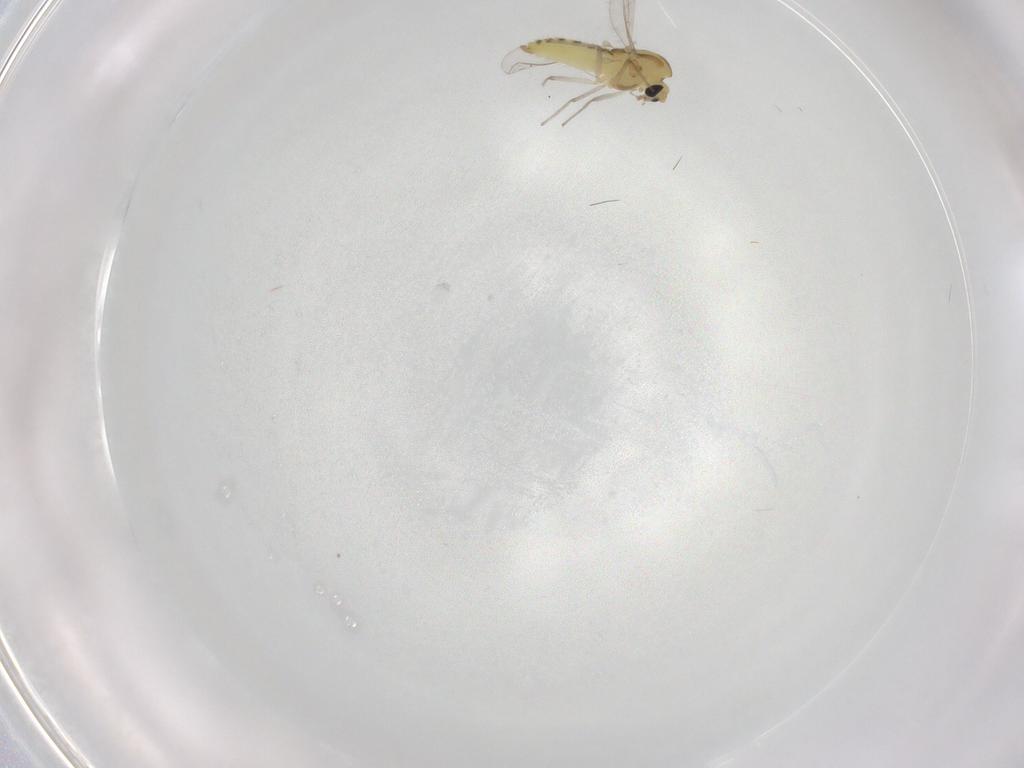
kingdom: Animalia
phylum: Arthropoda
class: Insecta
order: Diptera
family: Chironomidae
